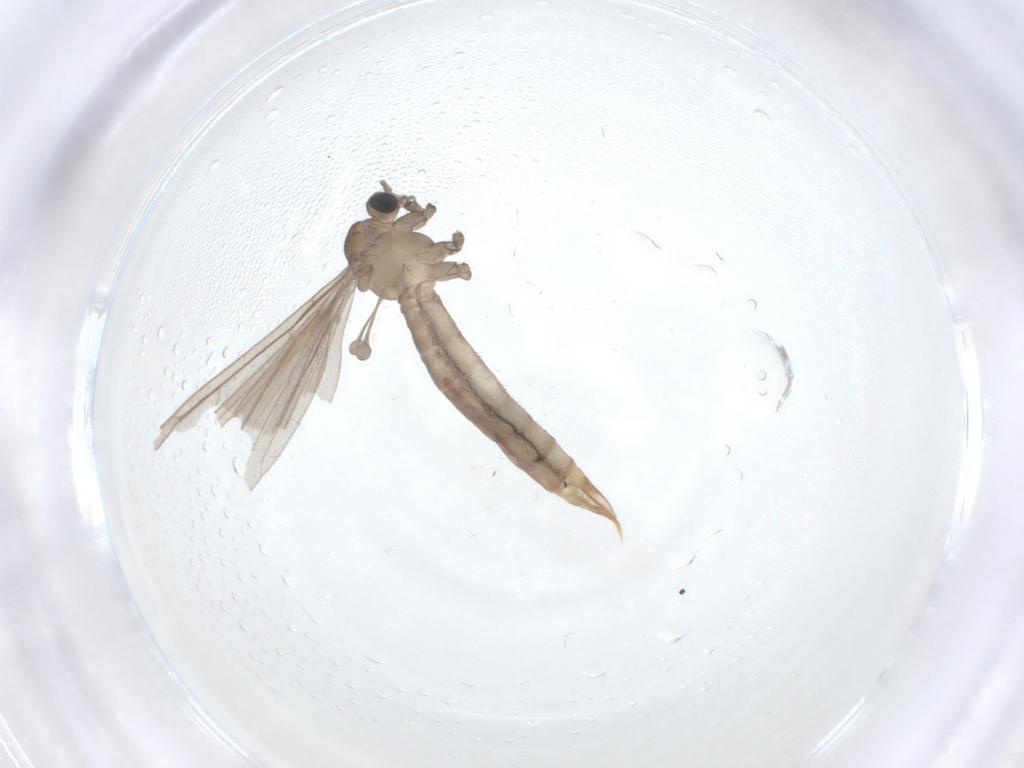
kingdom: Animalia
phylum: Arthropoda
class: Insecta
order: Diptera
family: Limoniidae
